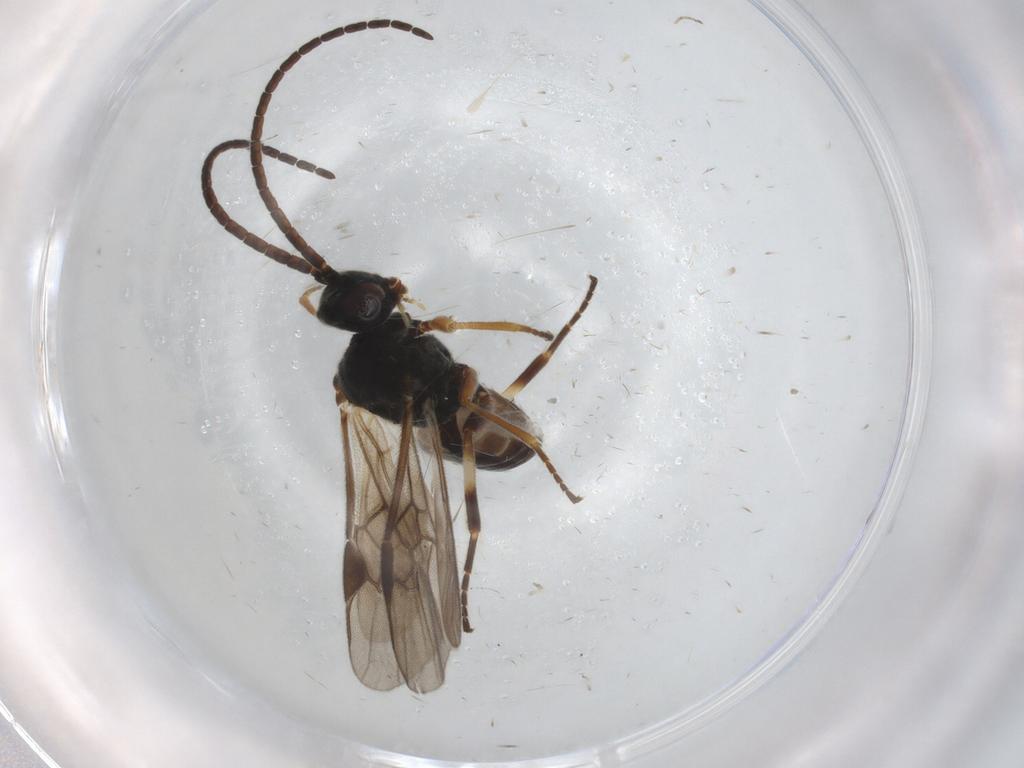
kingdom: Animalia
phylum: Arthropoda
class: Insecta
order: Hymenoptera
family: Braconidae
